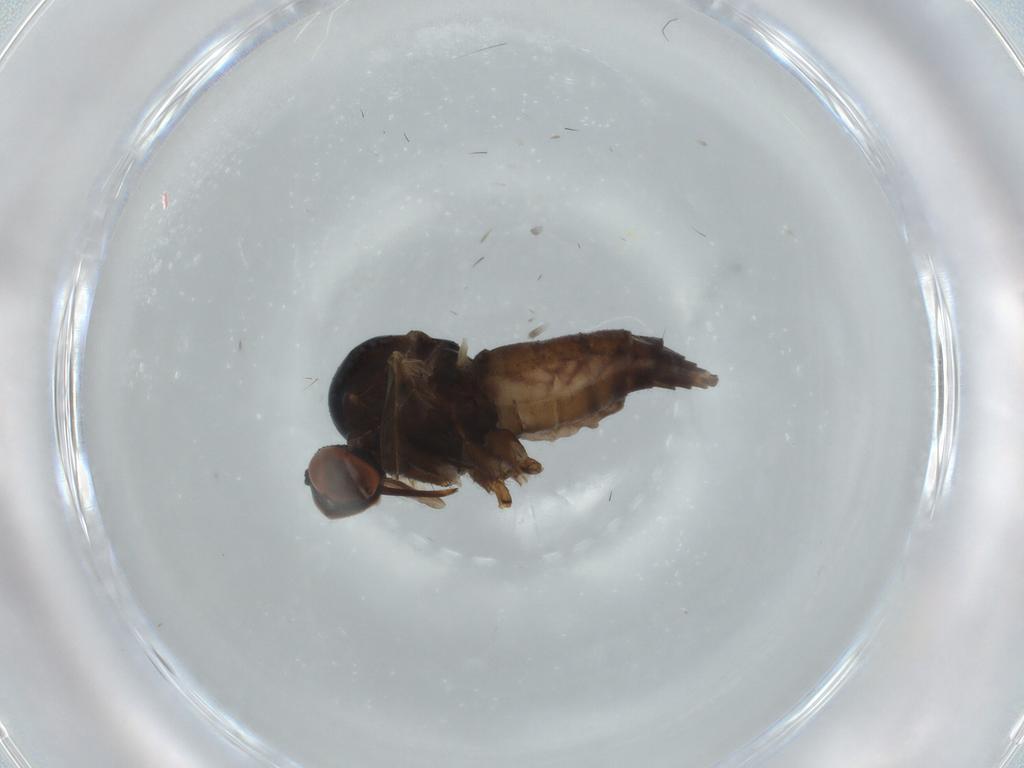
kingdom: Animalia
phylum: Arthropoda
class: Insecta
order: Diptera
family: Empididae
